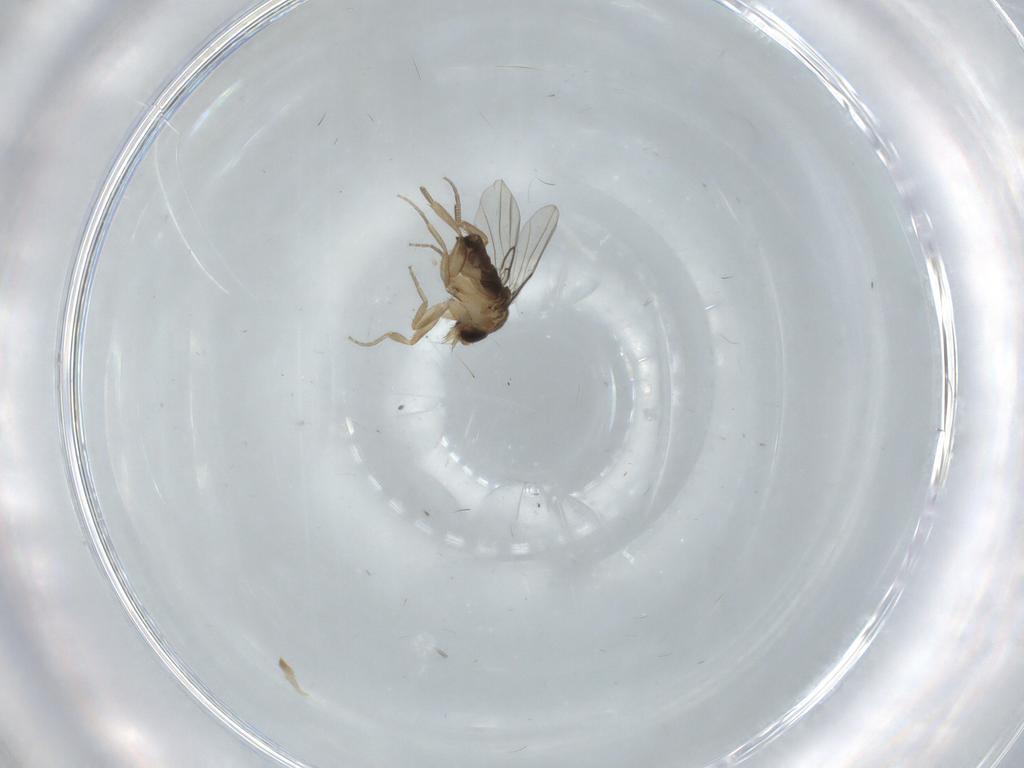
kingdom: Animalia
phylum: Arthropoda
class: Insecta
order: Diptera
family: Phoridae
